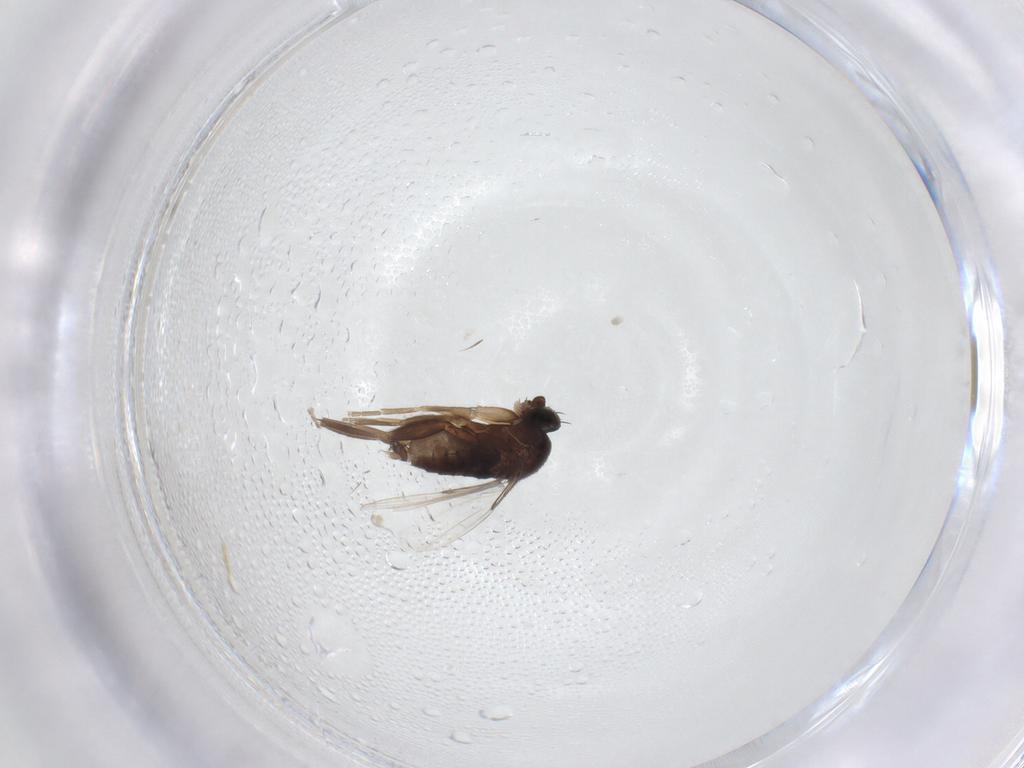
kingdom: Animalia
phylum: Arthropoda
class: Insecta
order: Diptera
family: Phoridae
